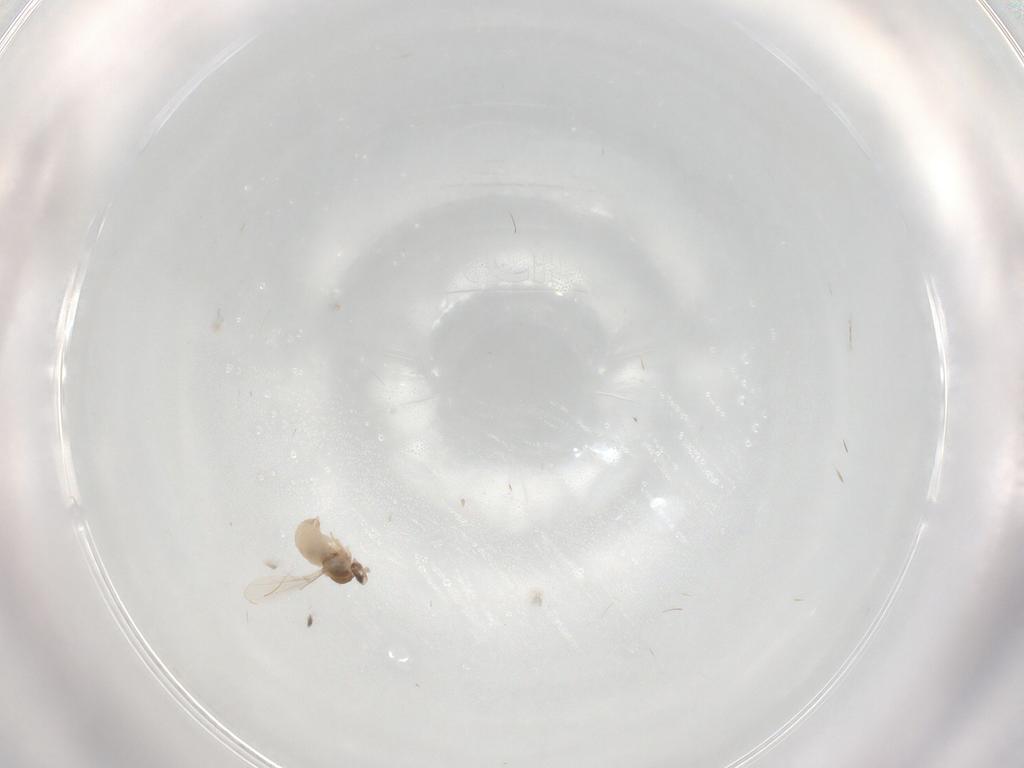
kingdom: Animalia
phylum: Arthropoda
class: Insecta
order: Diptera
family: Cecidomyiidae
